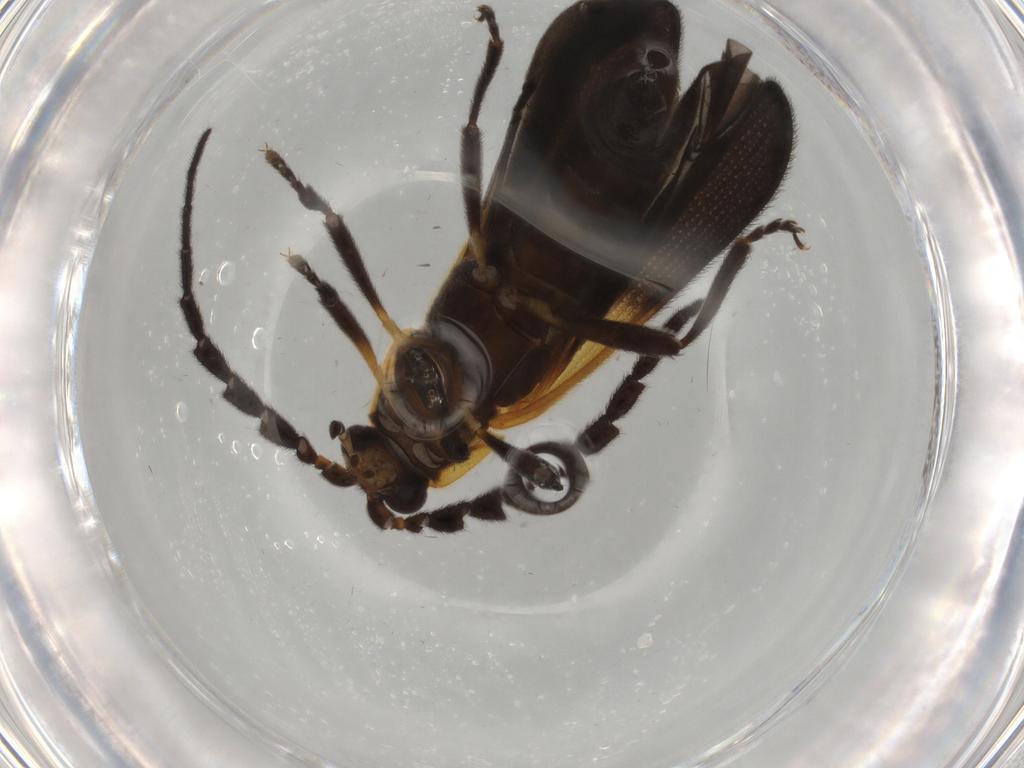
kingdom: Animalia
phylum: Arthropoda
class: Insecta
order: Coleoptera
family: Lycidae
